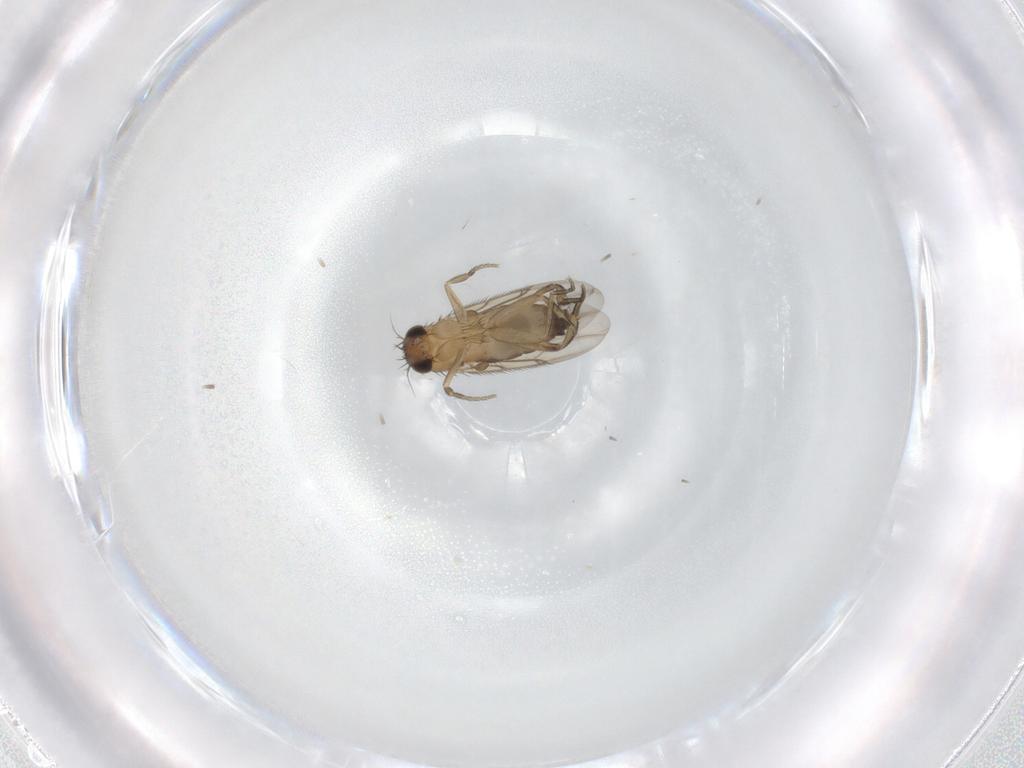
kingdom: Animalia
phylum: Arthropoda
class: Insecta
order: Diptera
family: Phoridae
